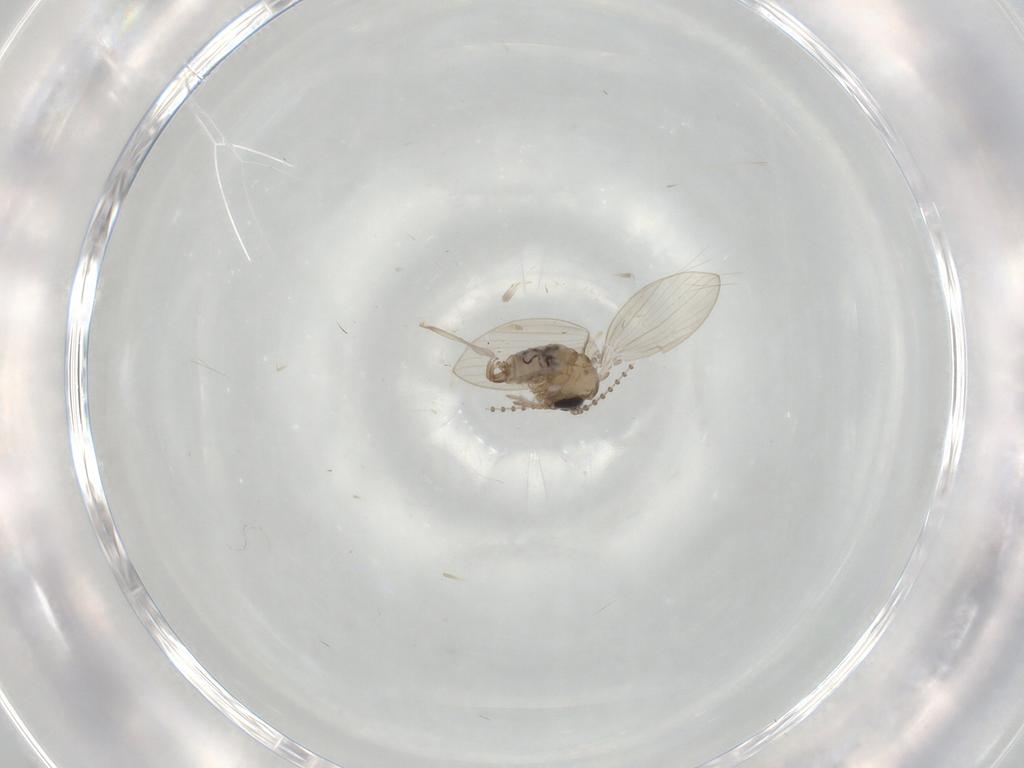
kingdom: Animalia
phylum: Arthropoda
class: Insecta
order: Diptera
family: Psychodidae
